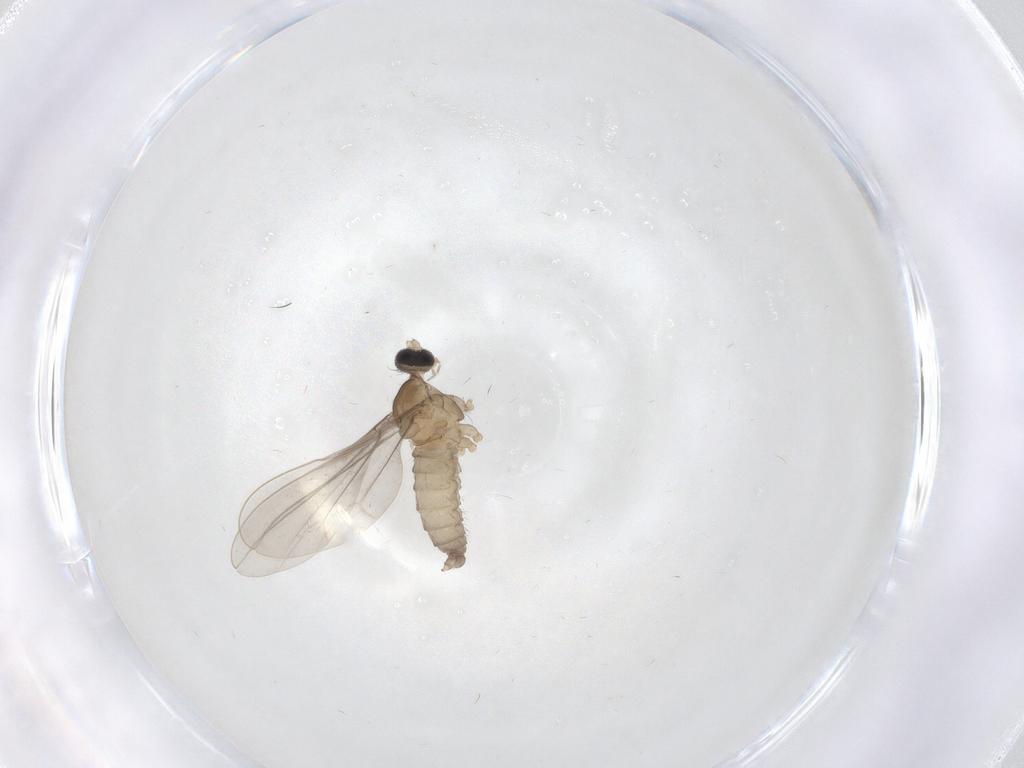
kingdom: Animalia
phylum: Arthropoda
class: Insecta
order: Diptera
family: Cecidomyiidae
